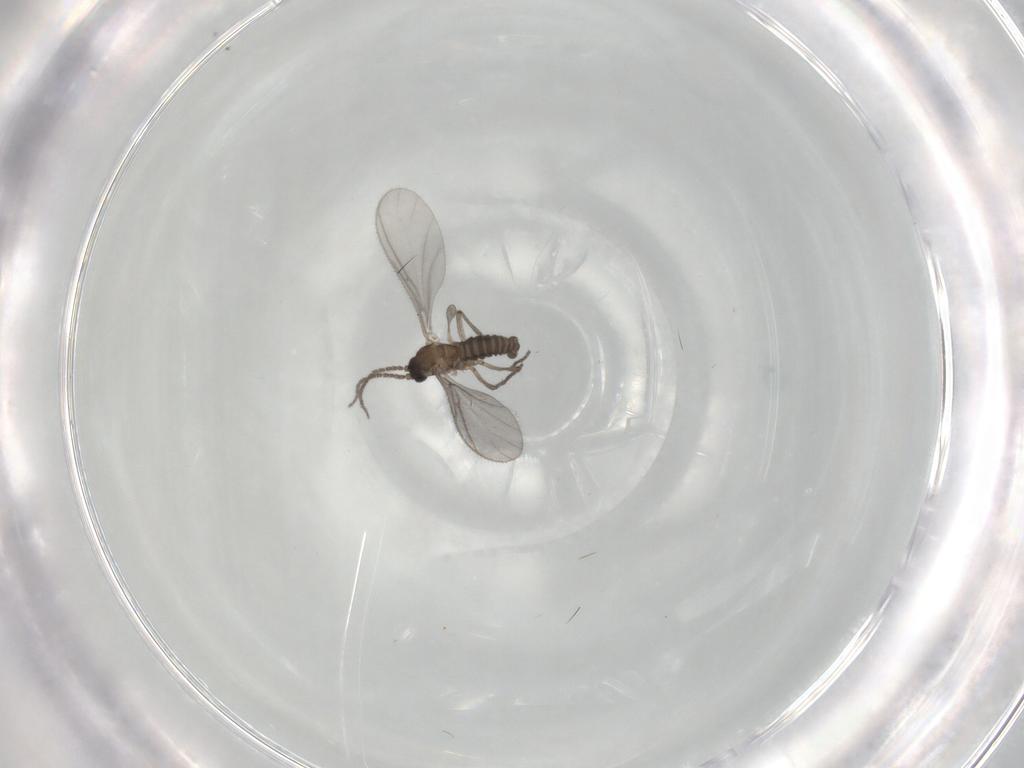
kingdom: Animalia
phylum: Arthropoda
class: Insecta
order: Diptera
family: Sciaridae
